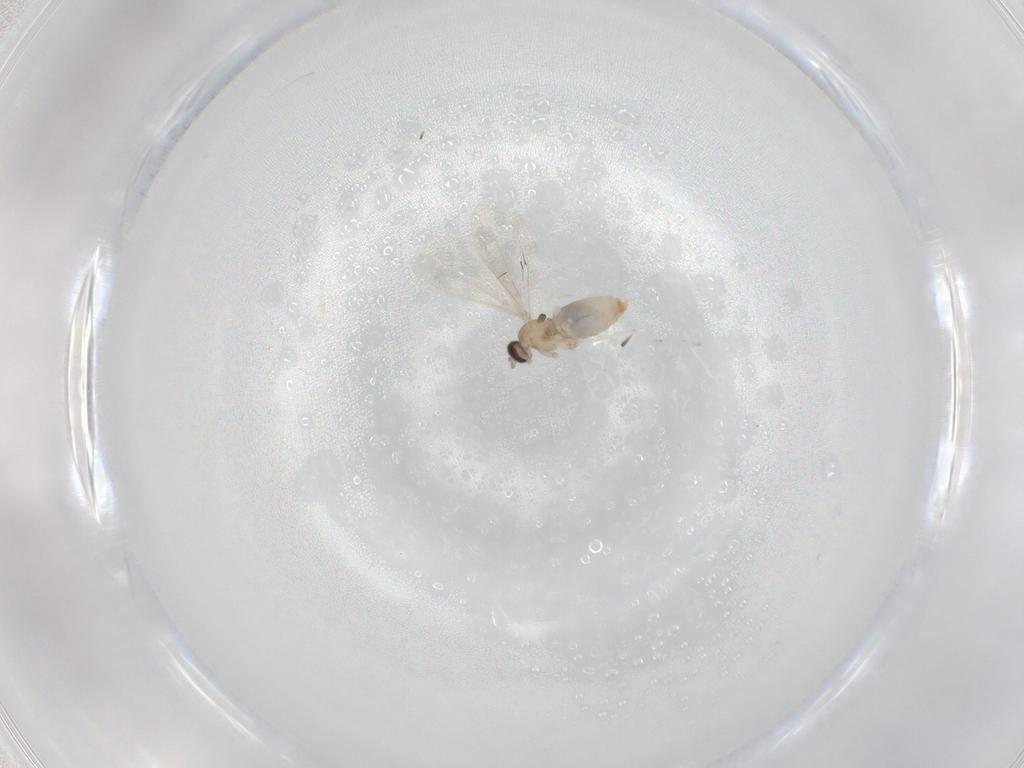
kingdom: Animalia
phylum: Arthropoda
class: Insecta
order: Diptera
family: Cecidomyiidae
